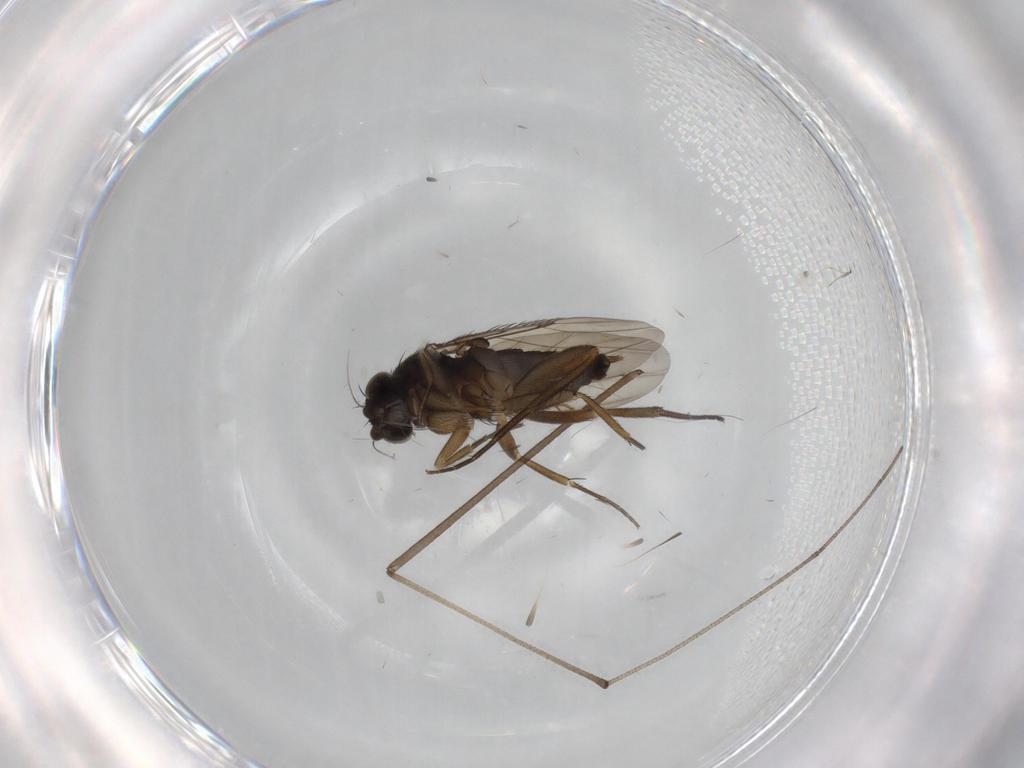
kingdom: Animalia
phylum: Arthropoda
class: Insecta
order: Diptera
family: Phoridae
